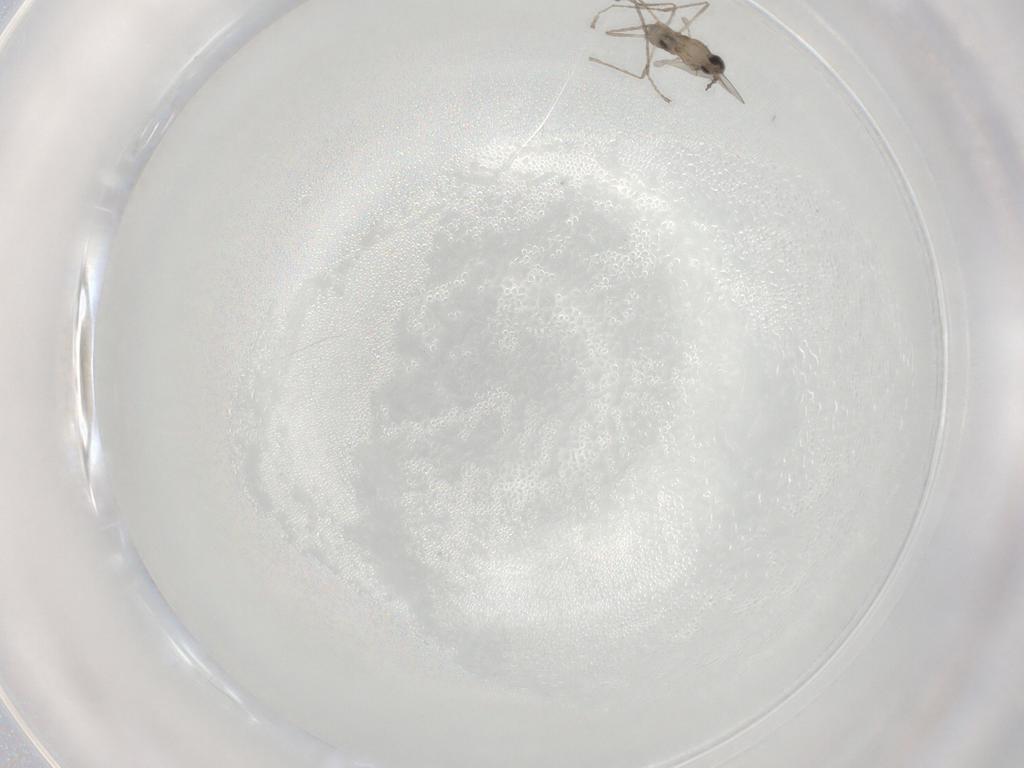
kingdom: Animalia
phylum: Arthropoda
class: Insecta
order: Diptera
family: Cecidomyiidae
